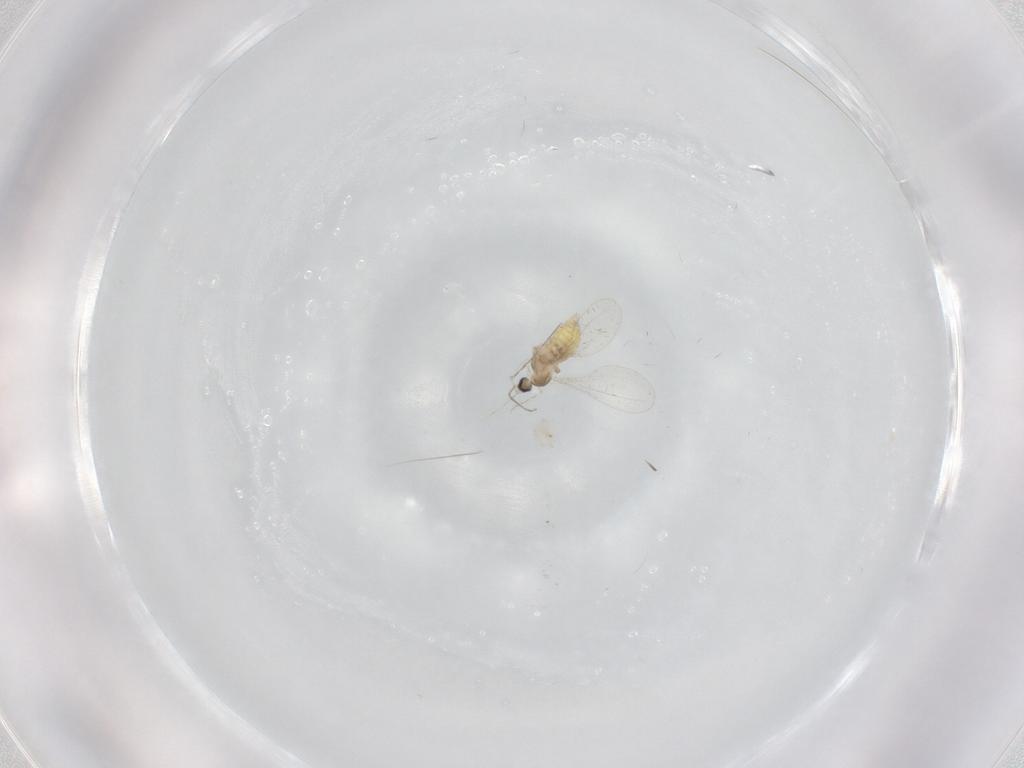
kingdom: Animalia
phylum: Arthropoda
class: Insecta
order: Diptera
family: Cecidomyiidae
